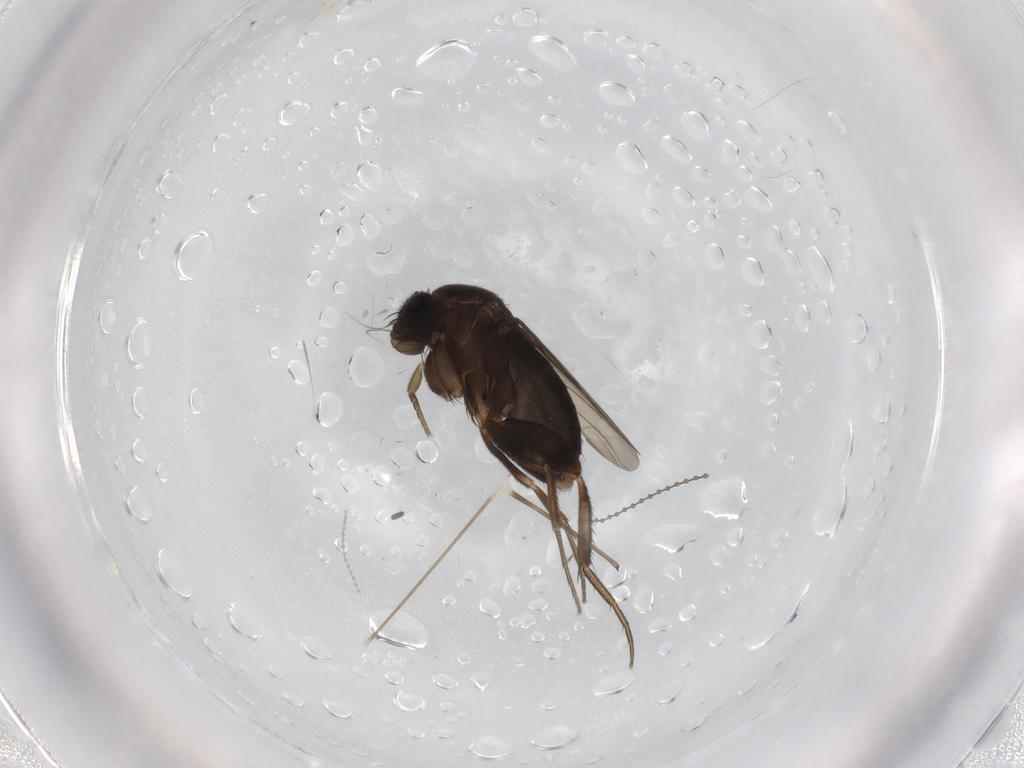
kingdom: Animalia
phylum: Arthropoda
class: Insecta
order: Diptera
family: Phoridae
